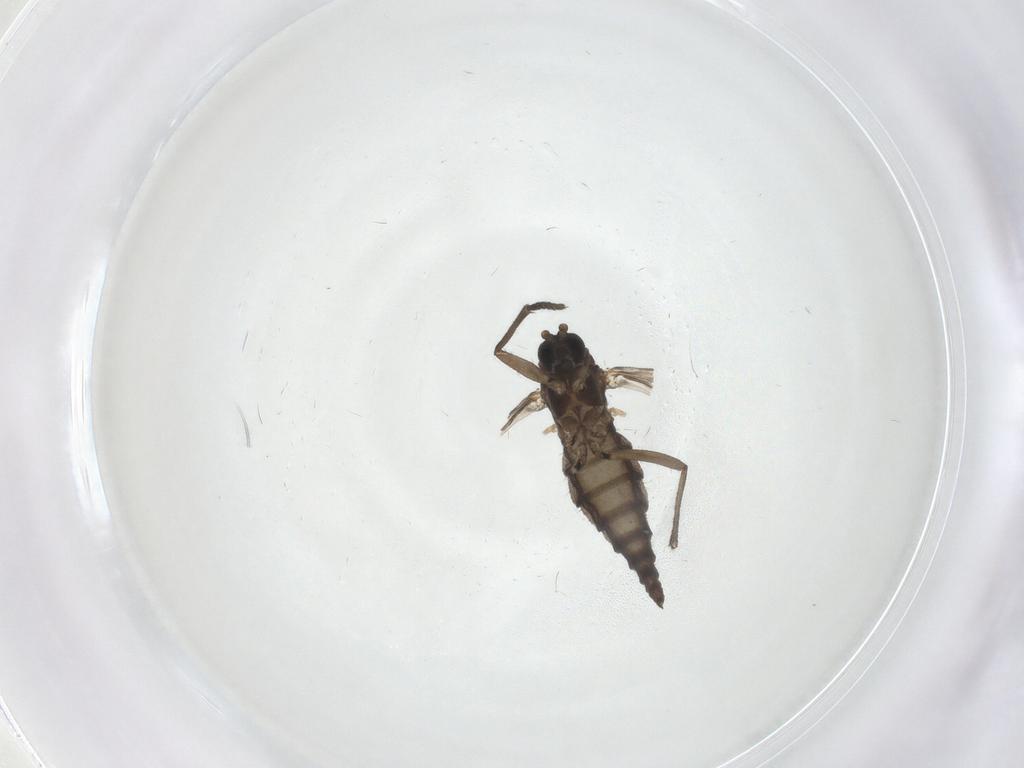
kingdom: Animalia
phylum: Arthropoda
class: Insecta
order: Diptera
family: Sciaridae
